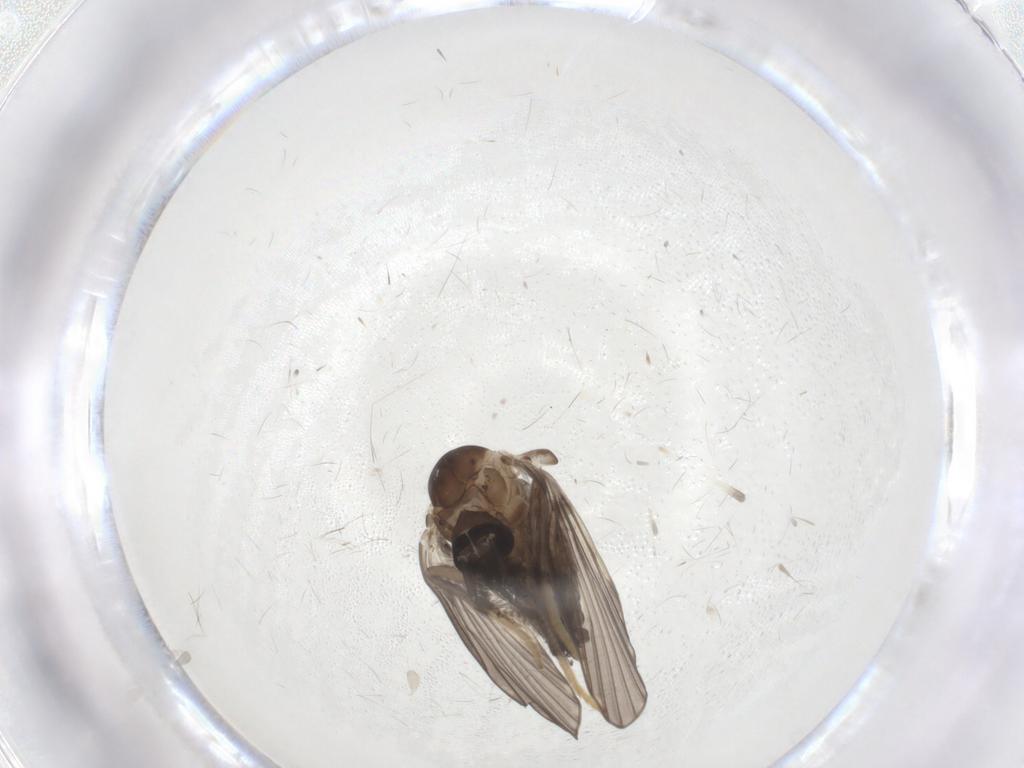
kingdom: Animalia
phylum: Arthropoda
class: Insecta
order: Diptera
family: Psychodidae
